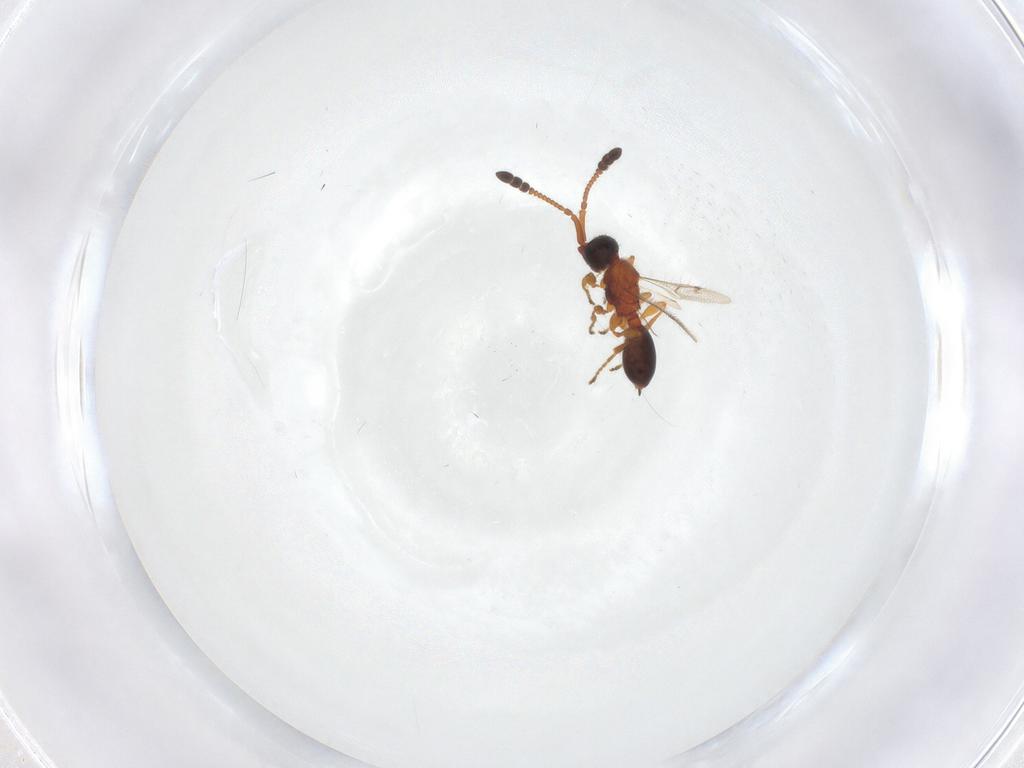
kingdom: Animalia
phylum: Arthropoda
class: Insecta
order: Hymenoptera
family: Diapriidae
